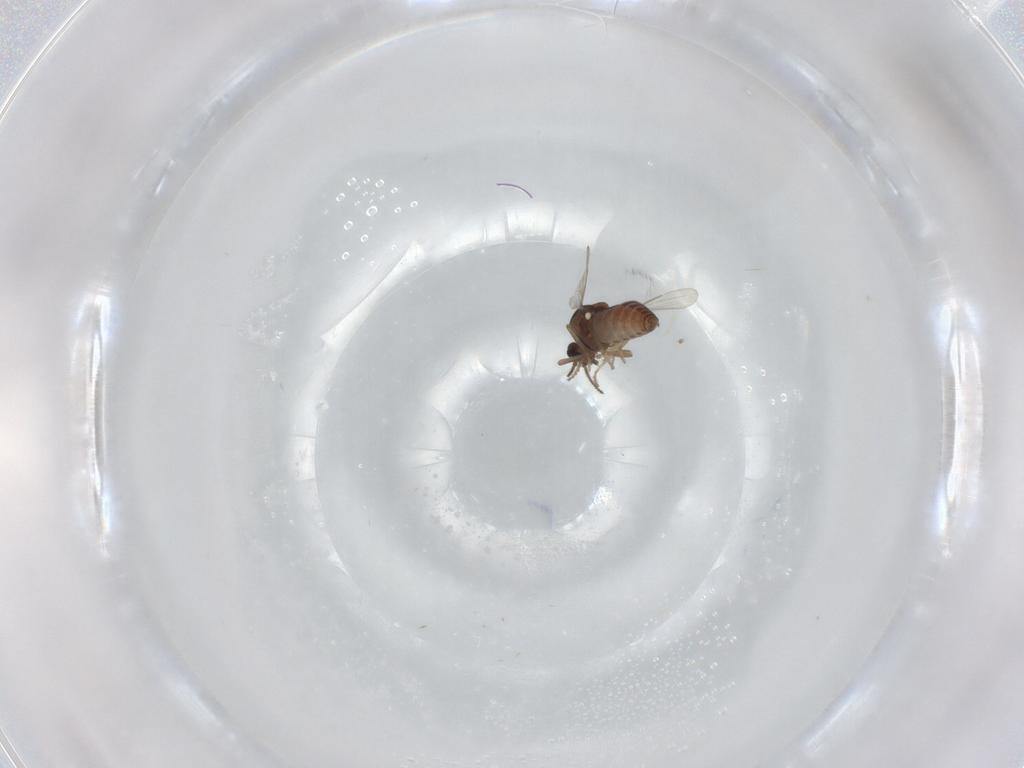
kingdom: Animalia
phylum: Arthropoda
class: Insecta
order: Diptera
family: Ceratopogonidae
